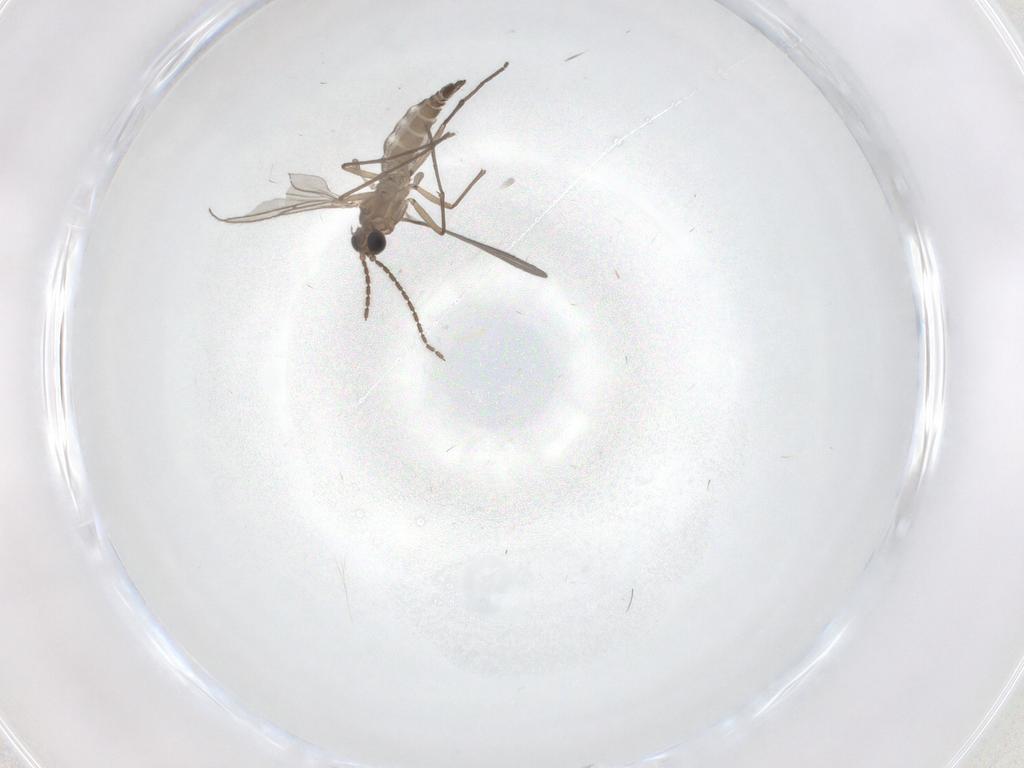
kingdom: Animalia
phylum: Arthropoda
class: Insecta
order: Diptera
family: Sciaridae
